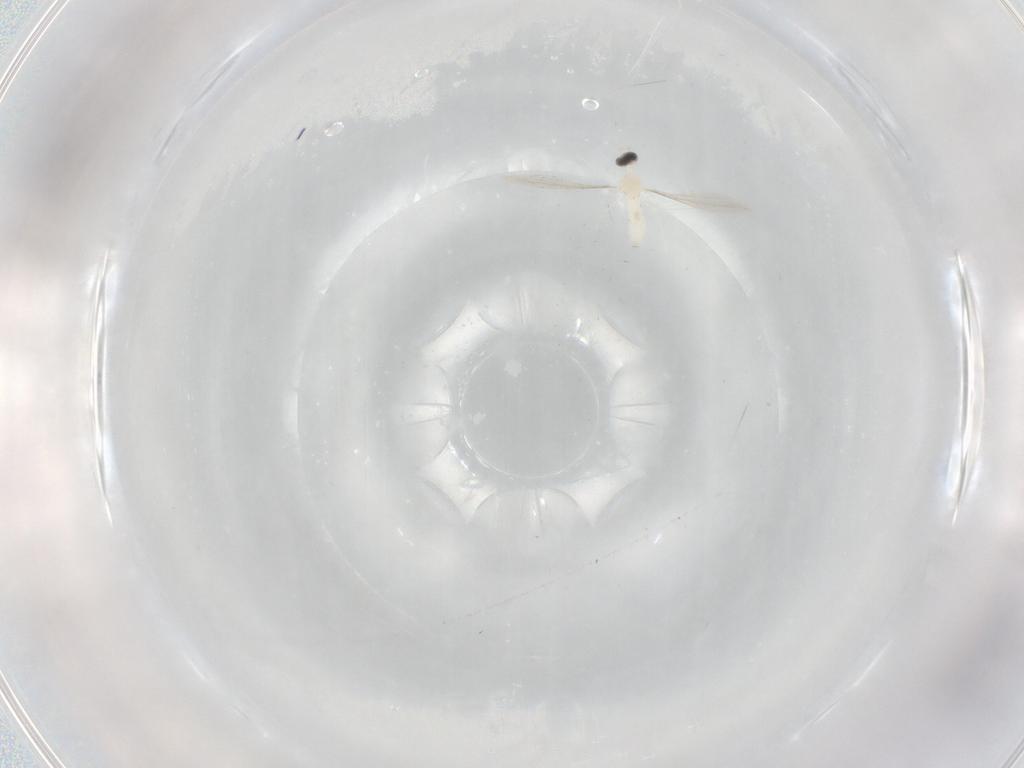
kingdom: Animalia
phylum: Arthropoda
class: Insecta
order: Diptera
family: Cecidomyiidae
